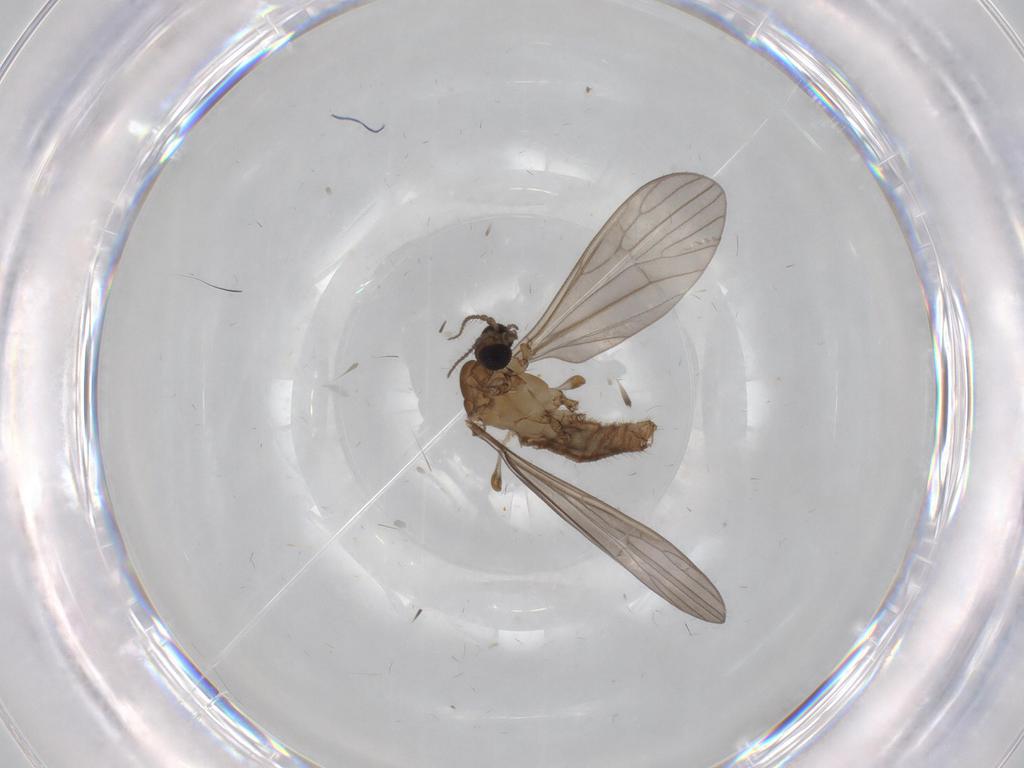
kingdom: Animalia
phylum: Arthropoda
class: Insecta
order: Diptera
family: Limoniidae
